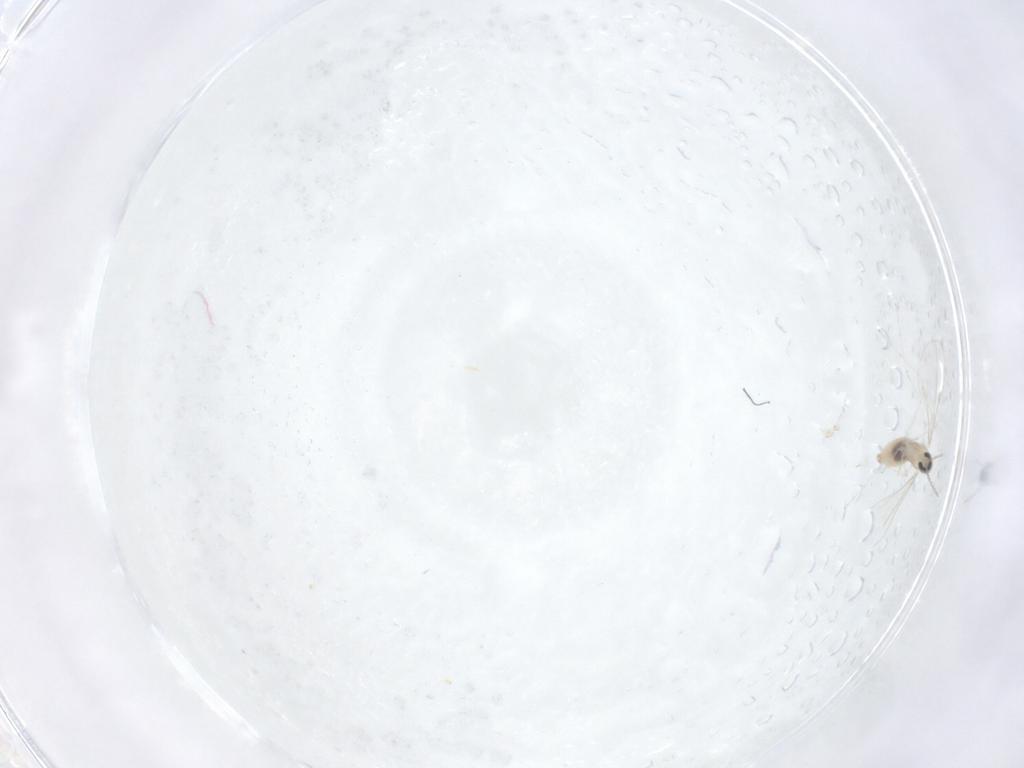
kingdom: Animalia
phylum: Arthropoda
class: Insecta
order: Diptera
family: Cecidomyiidae
